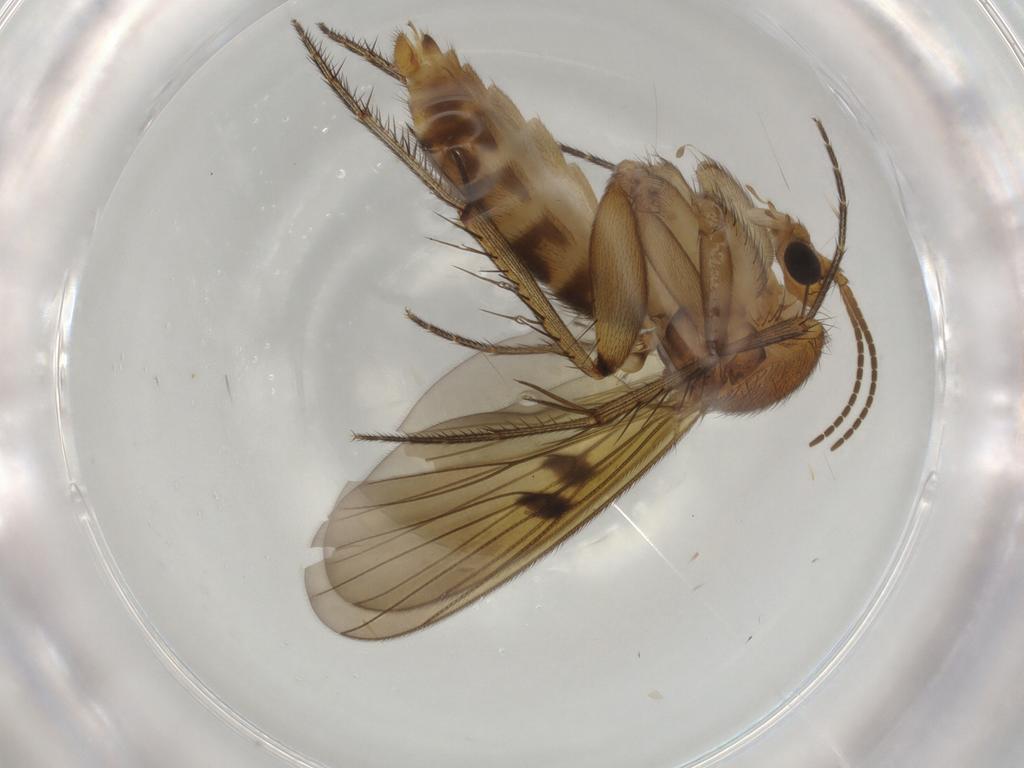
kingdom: Animalia
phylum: Arthropoda
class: Insecta
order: Diptera
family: Mycetophilidae
